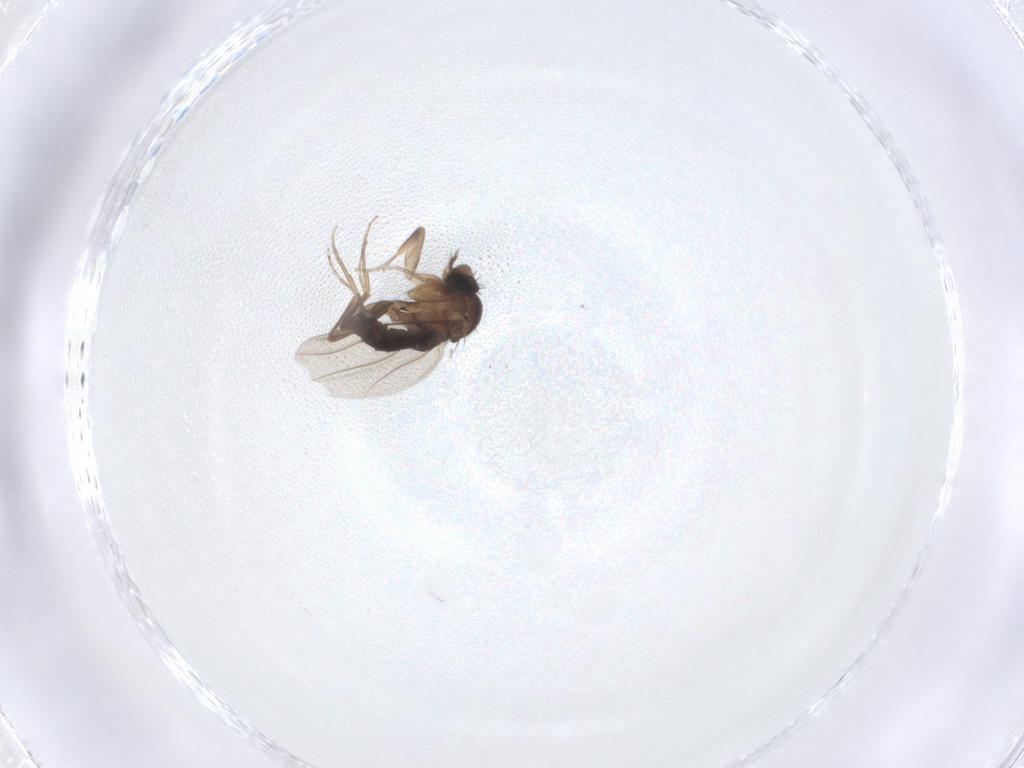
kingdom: Animalia
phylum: Arthropoda
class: Insecta
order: Diptera
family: Phoridae
